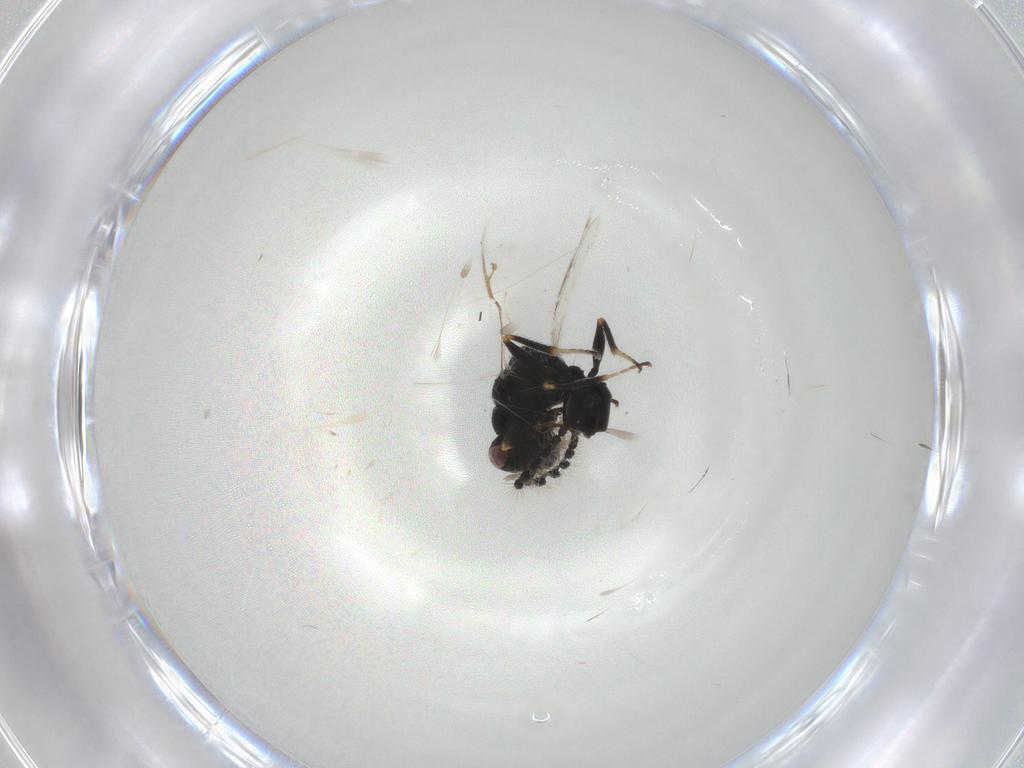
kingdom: Animalia
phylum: Arthropoda
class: Insecta
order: Hymenoptera
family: Eurytomidae
